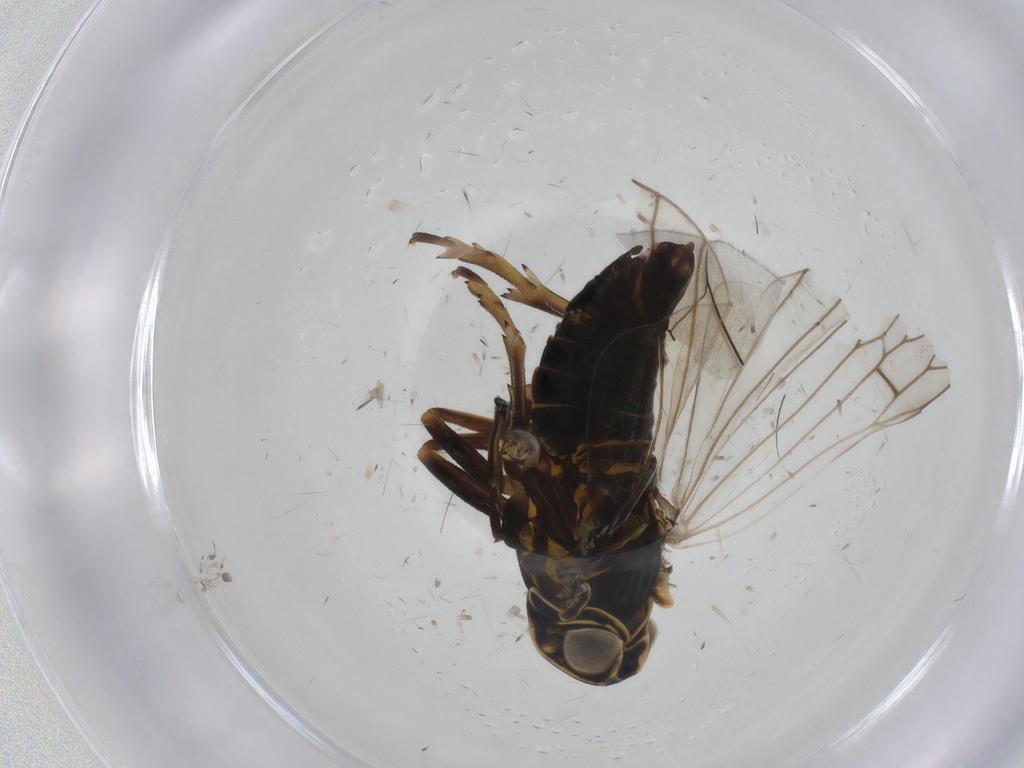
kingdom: Animalia
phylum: Arthropoda
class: Insecta
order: Hemiptera
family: Cixiidae
